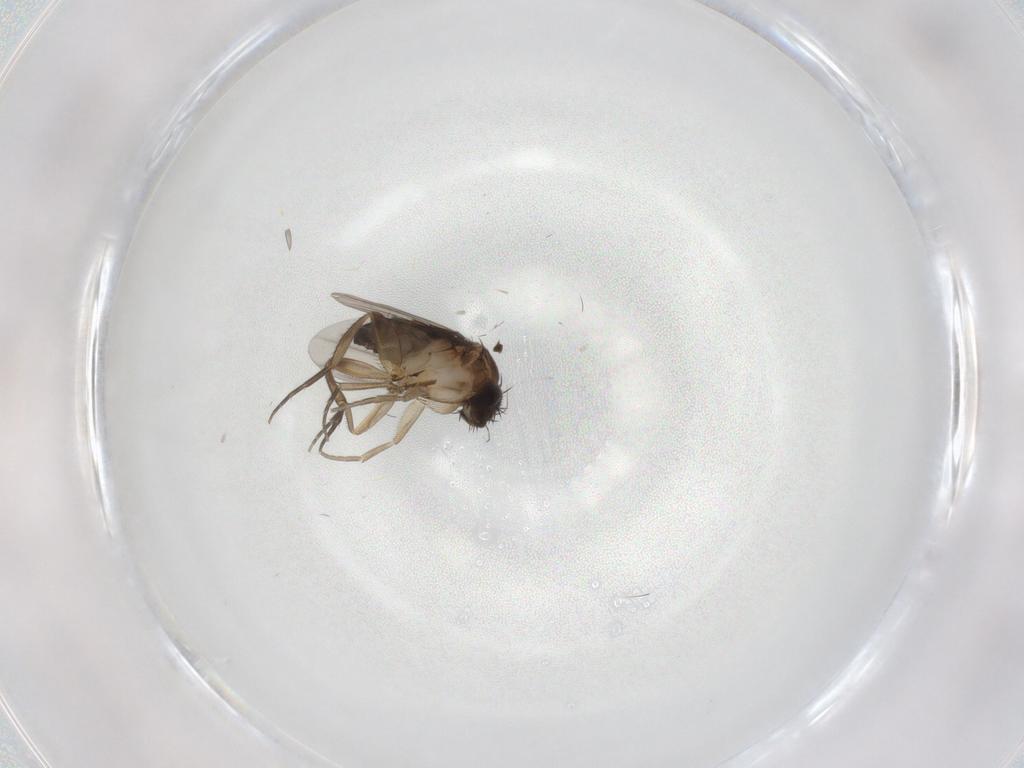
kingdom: Animalia
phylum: Arthropoda
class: Insecta
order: Diptera
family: Phoridae
